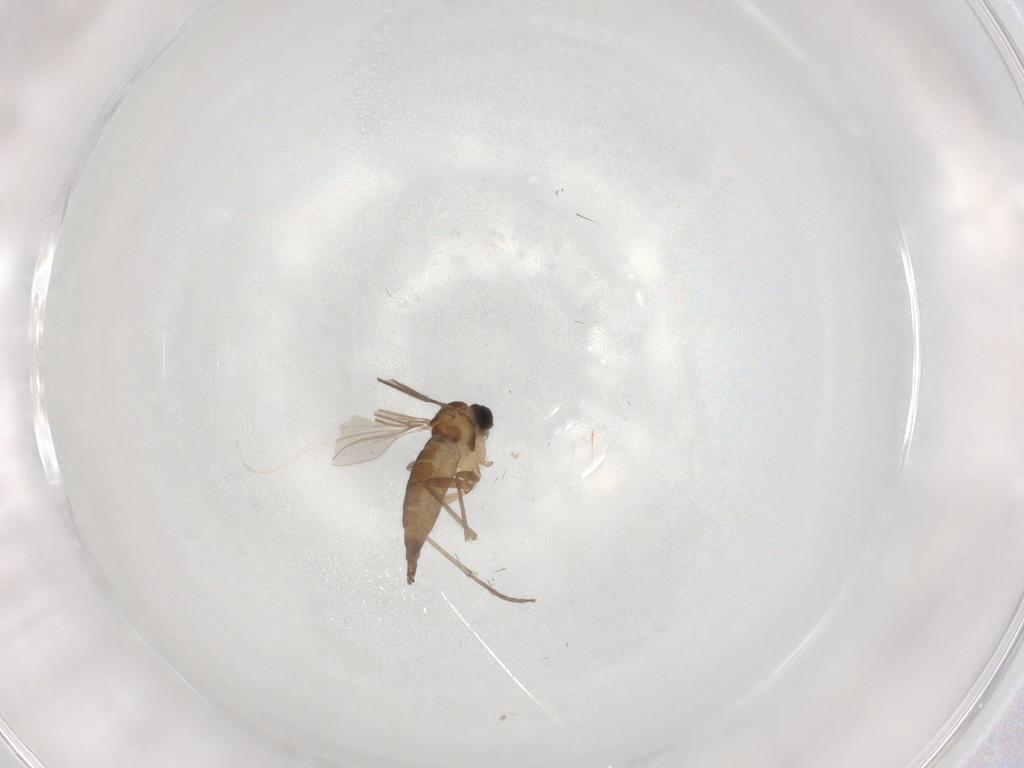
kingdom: Animalia
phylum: Arthropoda
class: Insecta
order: Diptera
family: Sciaridae
